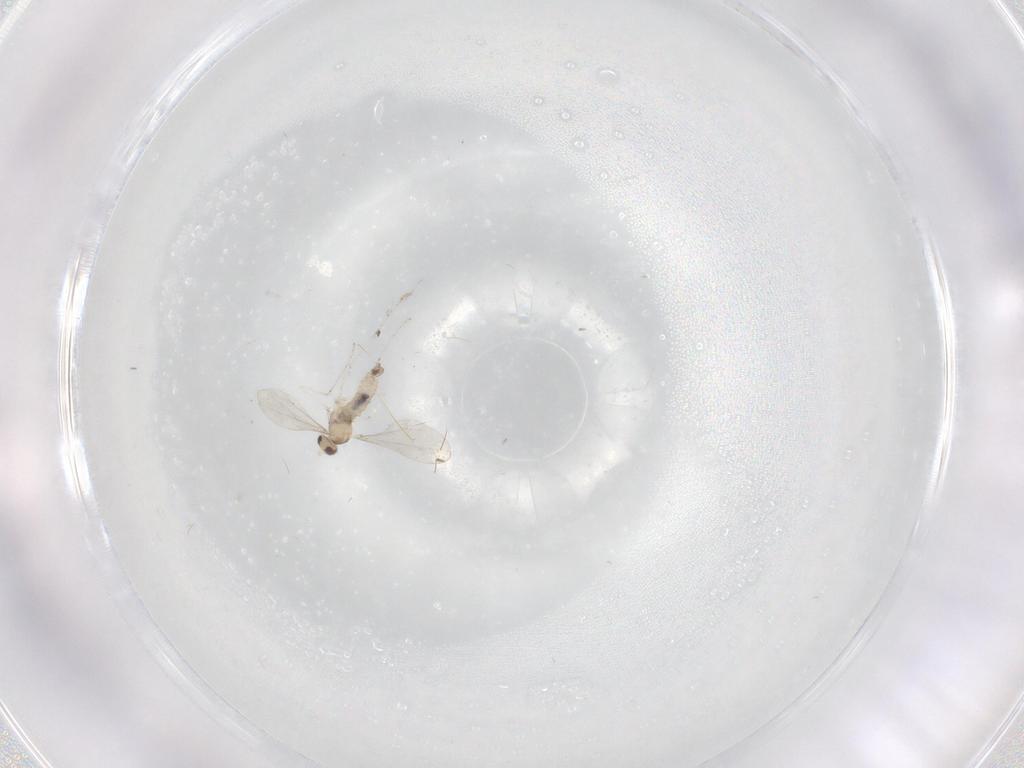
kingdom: Animalia
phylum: Arthropoda
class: Insecta
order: Diptera
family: Cecidomyiidae
